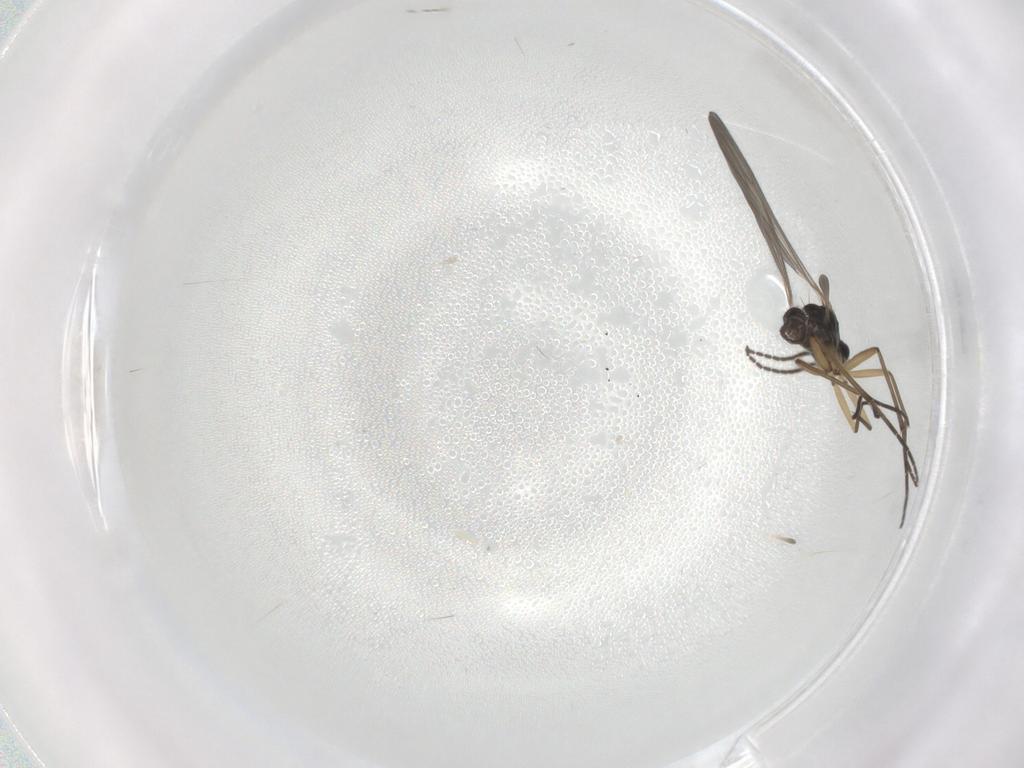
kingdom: Animalia
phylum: Arthropoda
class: Insecta
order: Diptera
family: Sciaridae
